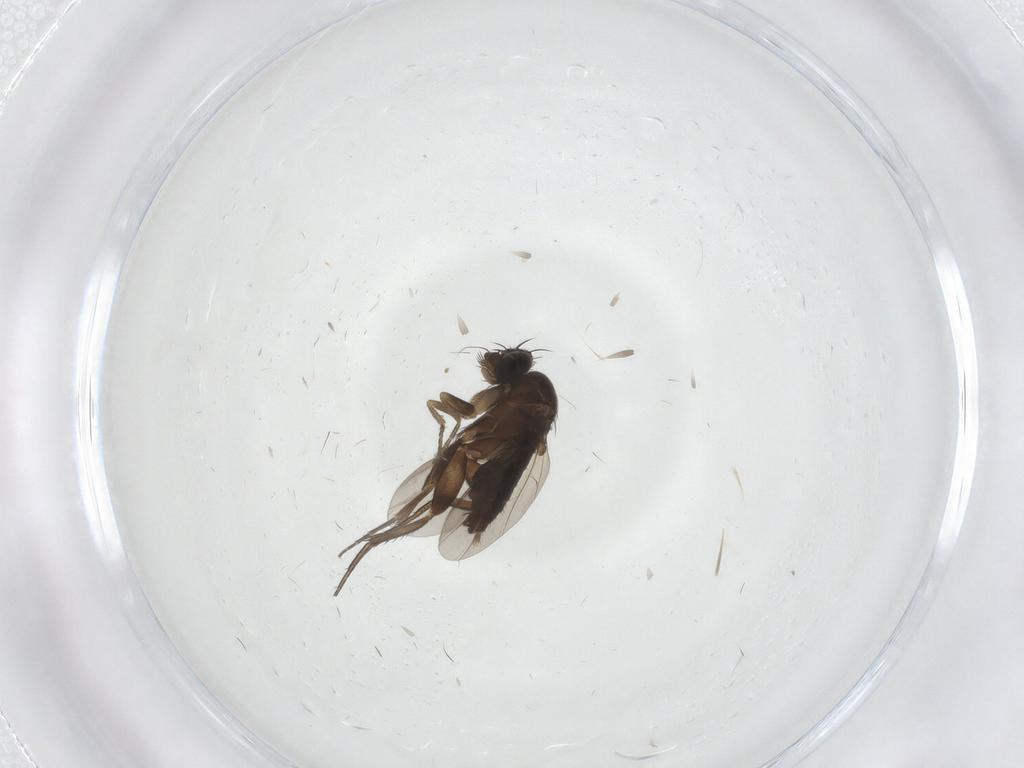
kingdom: Animalia
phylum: Arthropoda
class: Insecta
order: Diptera
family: Phoridae
